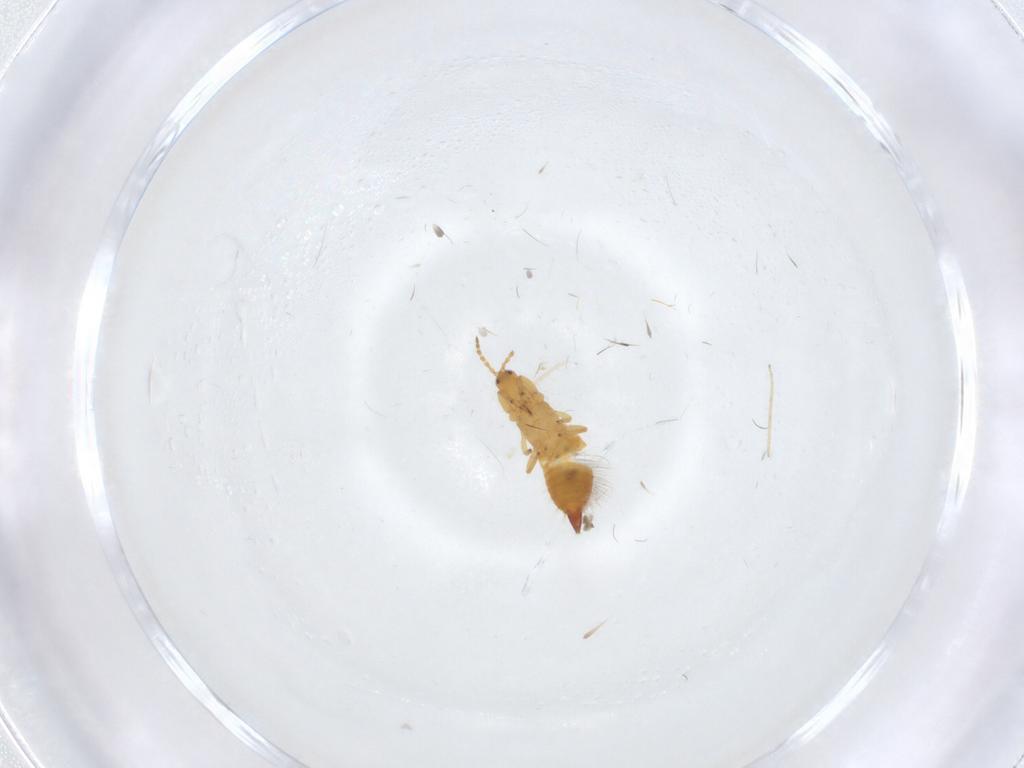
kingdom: Animalia
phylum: Arthropoda
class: Insecta
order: Thysanoptera
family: Phlaeothripidae
